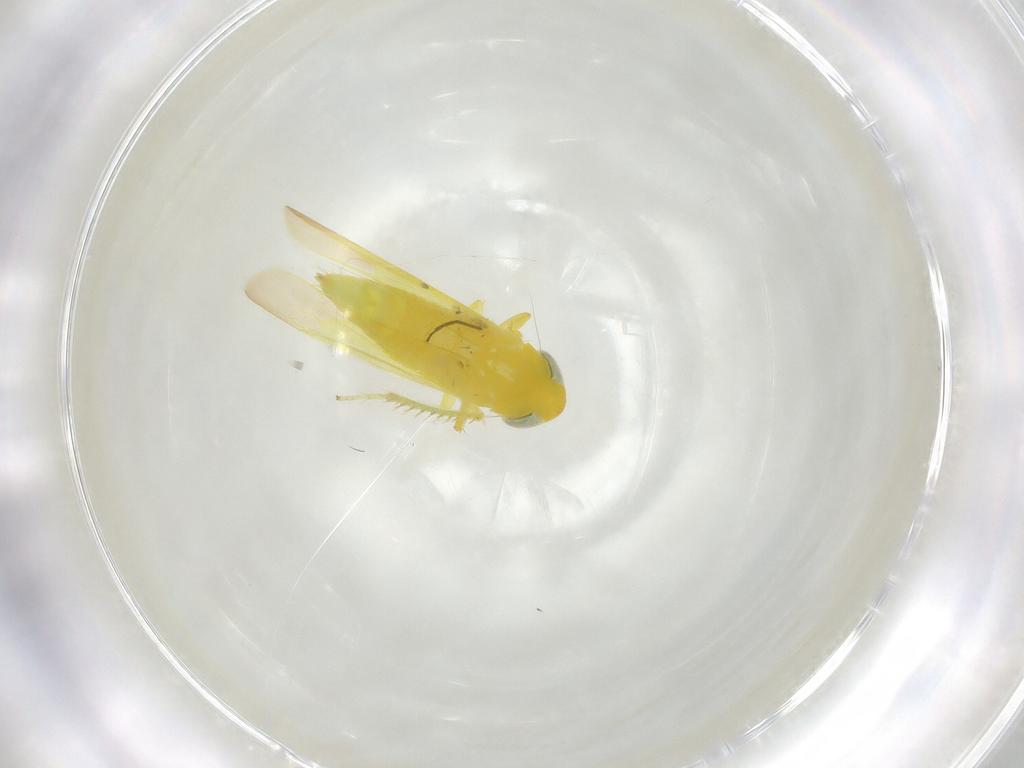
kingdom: Animalia
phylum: Arthropoda
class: Insecta
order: Hemiptera
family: Cicadellidae
